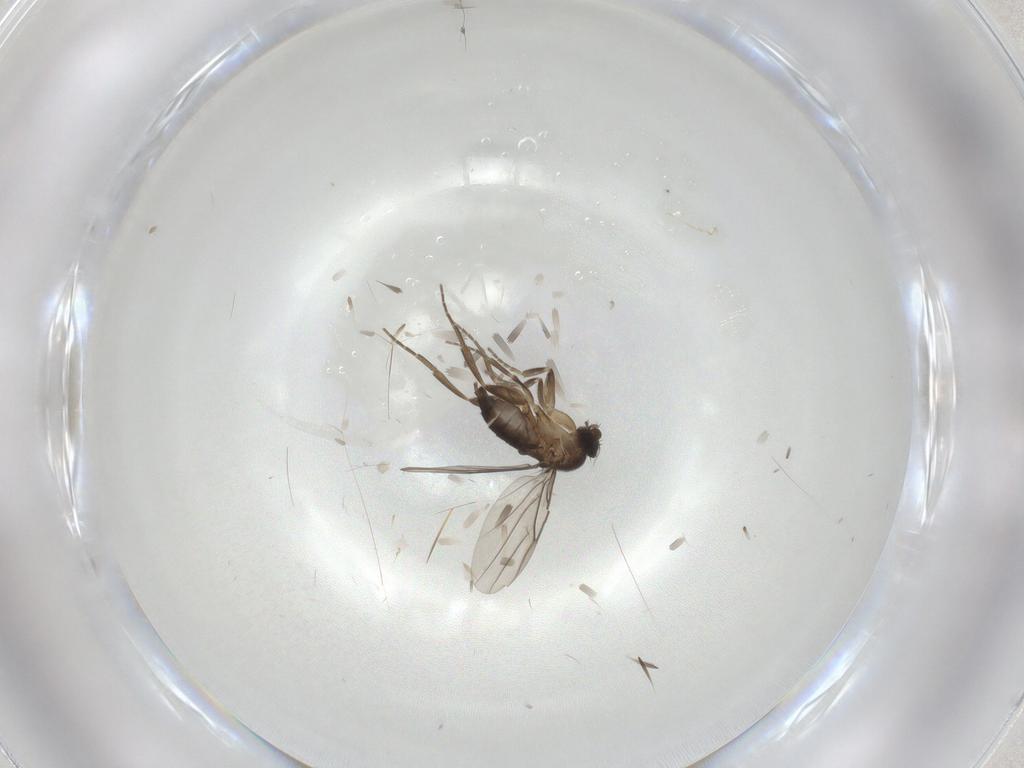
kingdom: Animalia
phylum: Arthropoda
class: Insecta
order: Diptera
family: Phoridae
